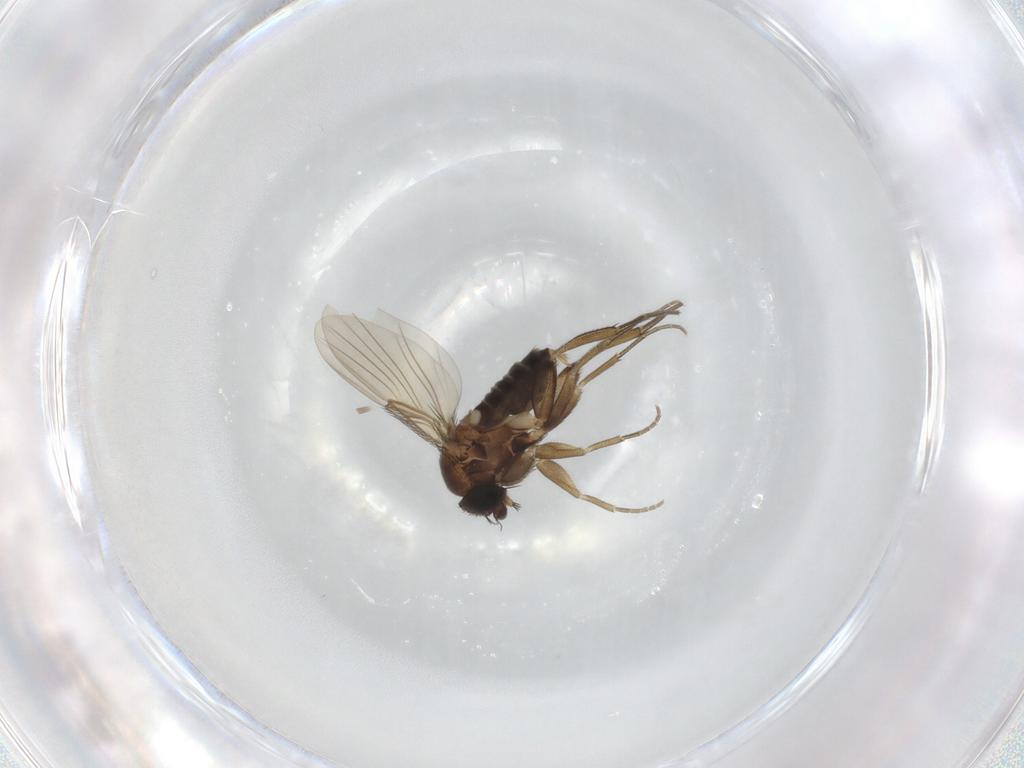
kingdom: Animalia
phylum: Arthropoda
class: Insecta
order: Diptera
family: Phoridae
